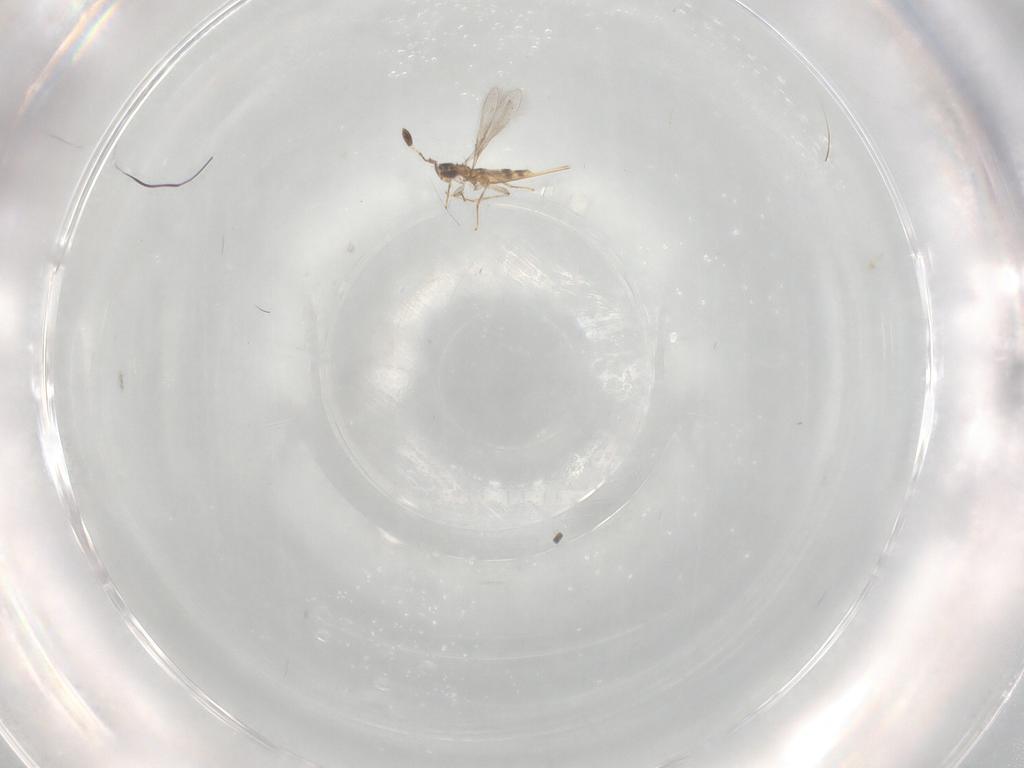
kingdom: Animalia
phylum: Arthropoda
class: Insecta
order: Hymenoptera
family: Mymaridae
